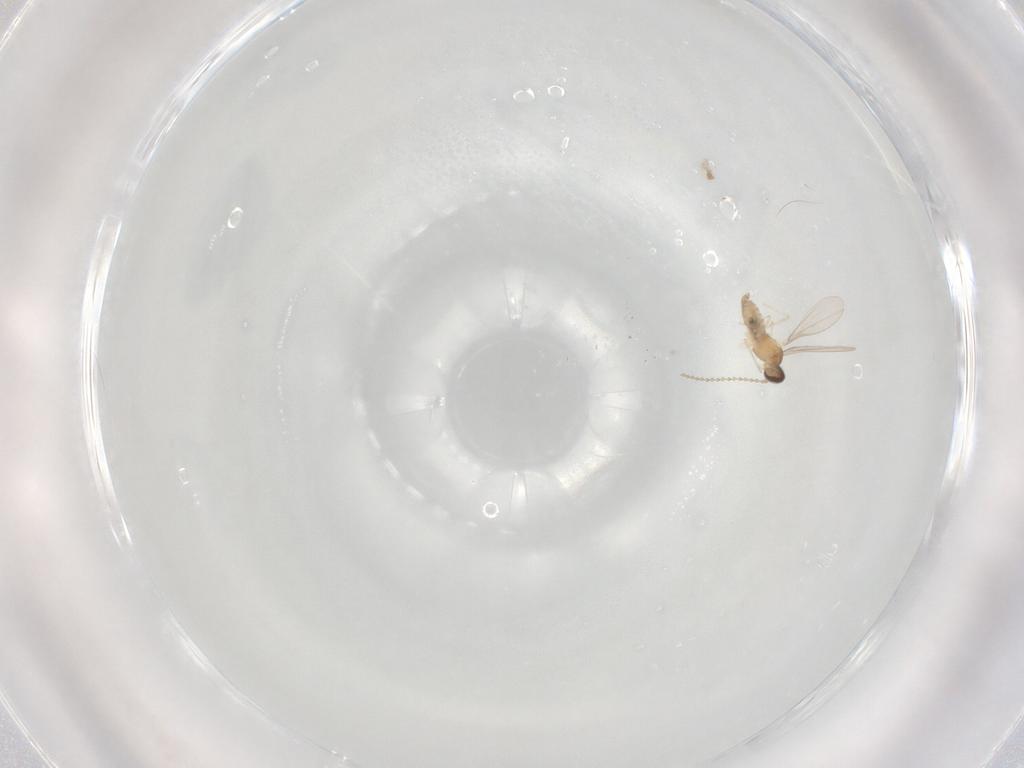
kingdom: Animalia
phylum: Arthropoda
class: Insecta
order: Diptera
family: Cecidomyiidae
